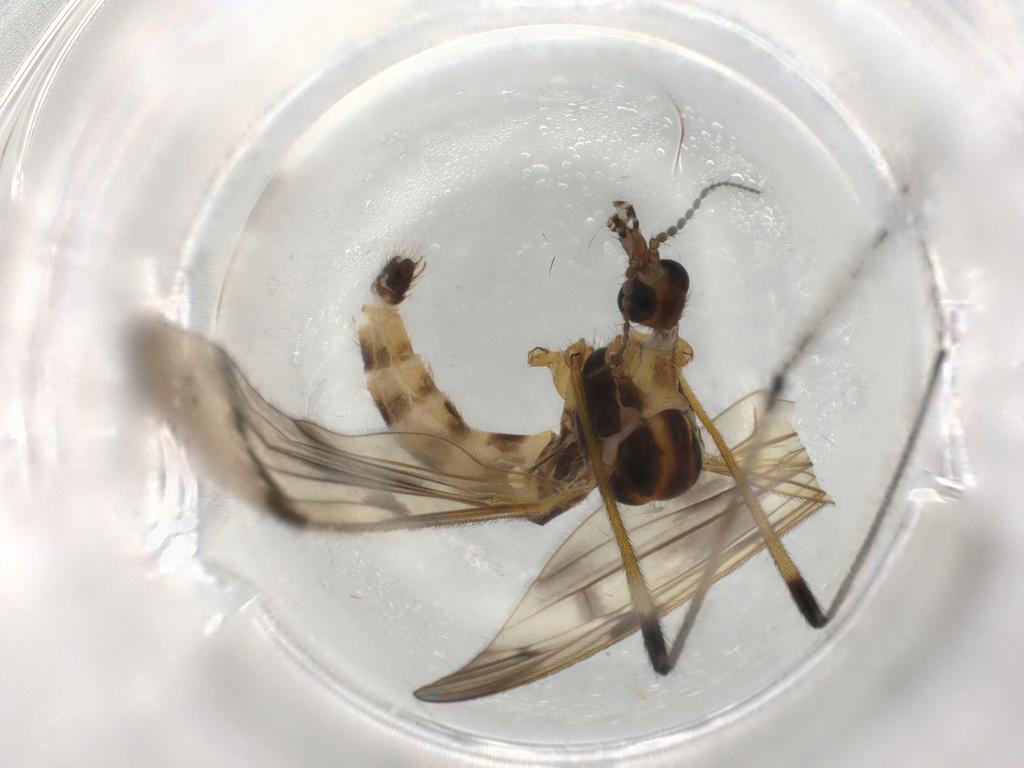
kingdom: Animalia
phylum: Arthropoda
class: Insecta
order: Diptera
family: Limoniidae
